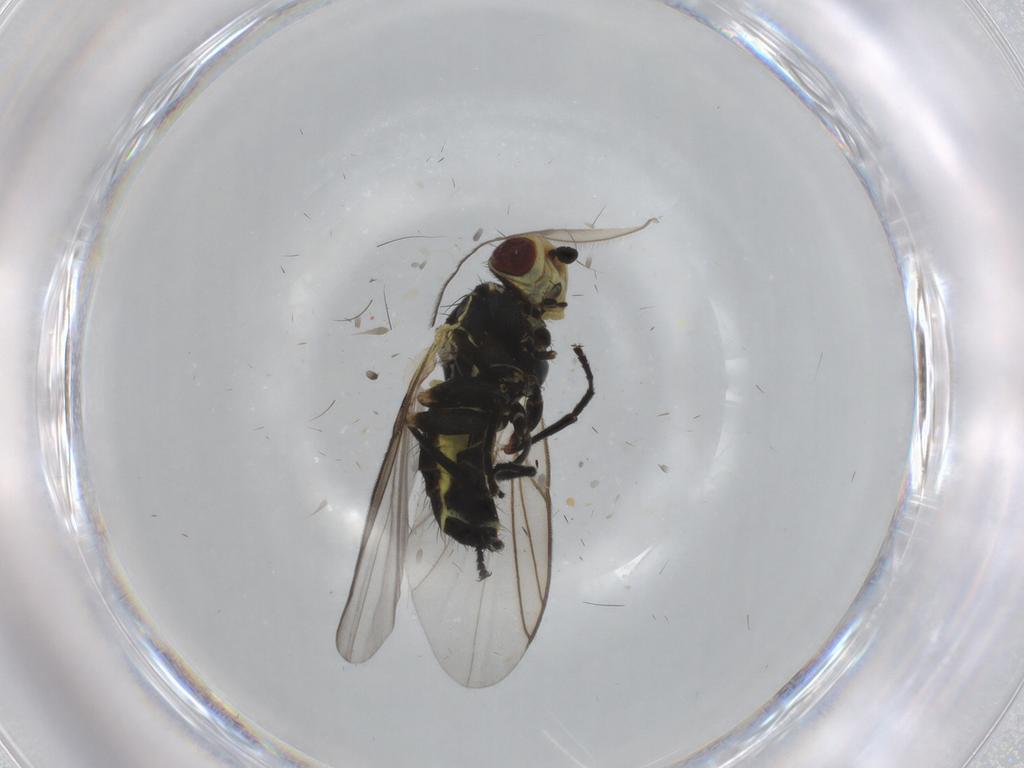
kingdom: Animalia
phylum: Arthropoda
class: Insecta
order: Diptera
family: Agromyzidae
